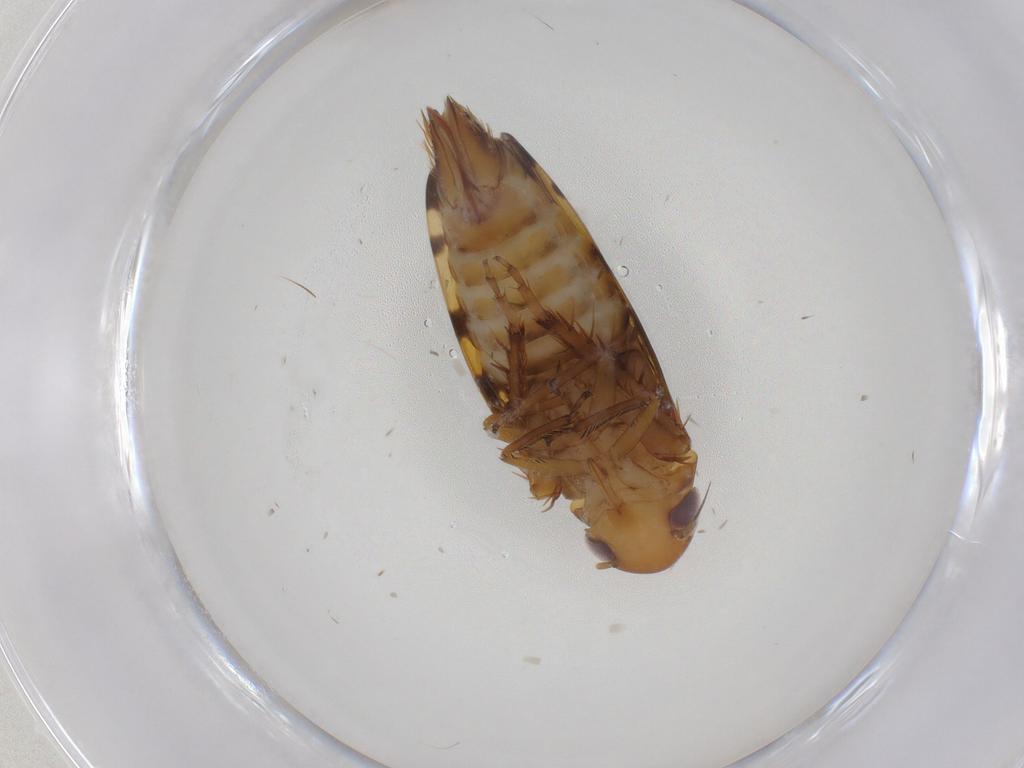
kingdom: Animalia
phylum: Arthropoda
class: Insecta
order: Hemiptera
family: Cicadellidae
